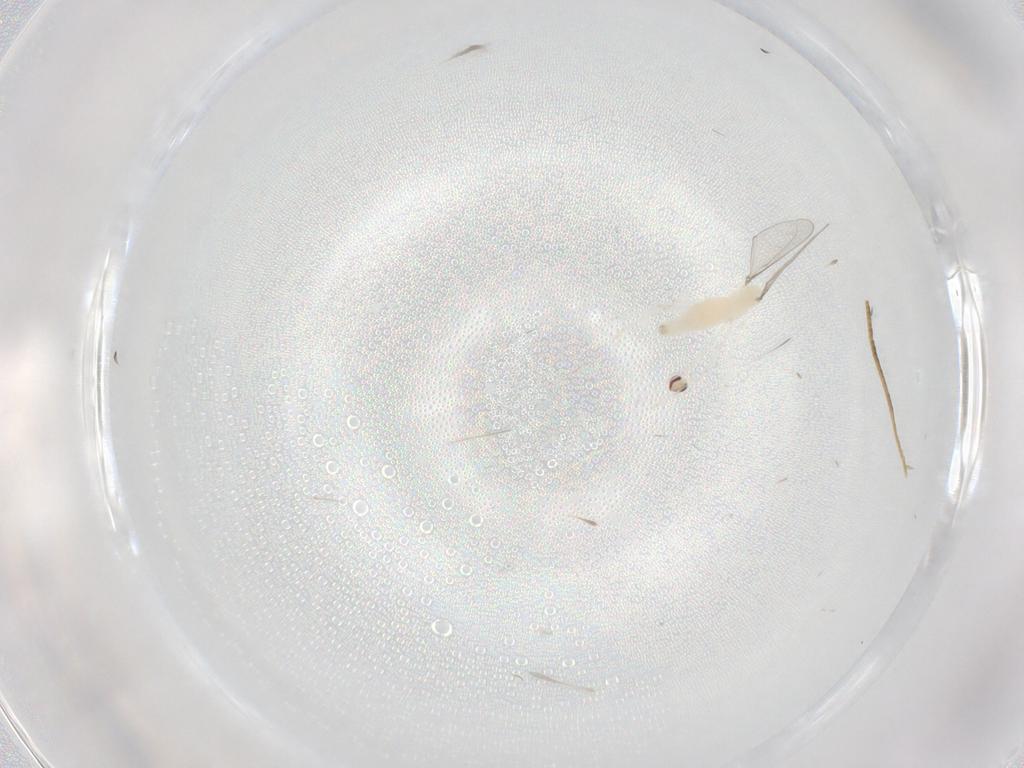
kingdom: Animalia
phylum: Arthropoda
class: Insecta
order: Diptera
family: Cecidomyiidae
